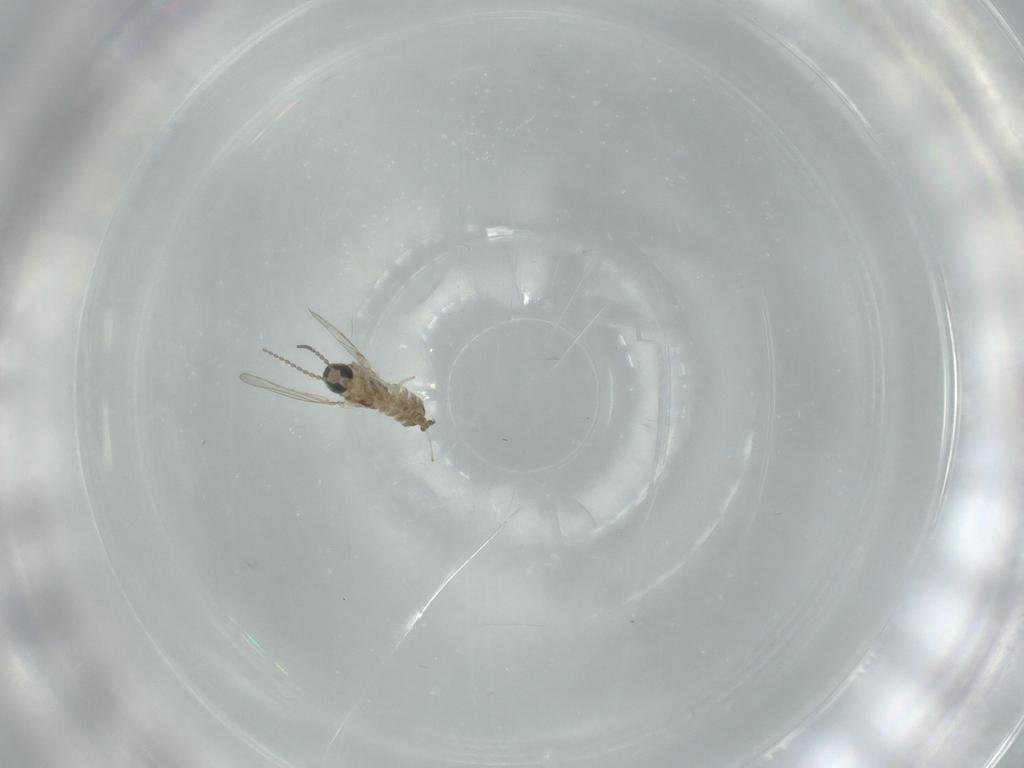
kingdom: Animalia
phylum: Arthropoda
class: Insecta
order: Diptera
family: Cecidomyiidae
